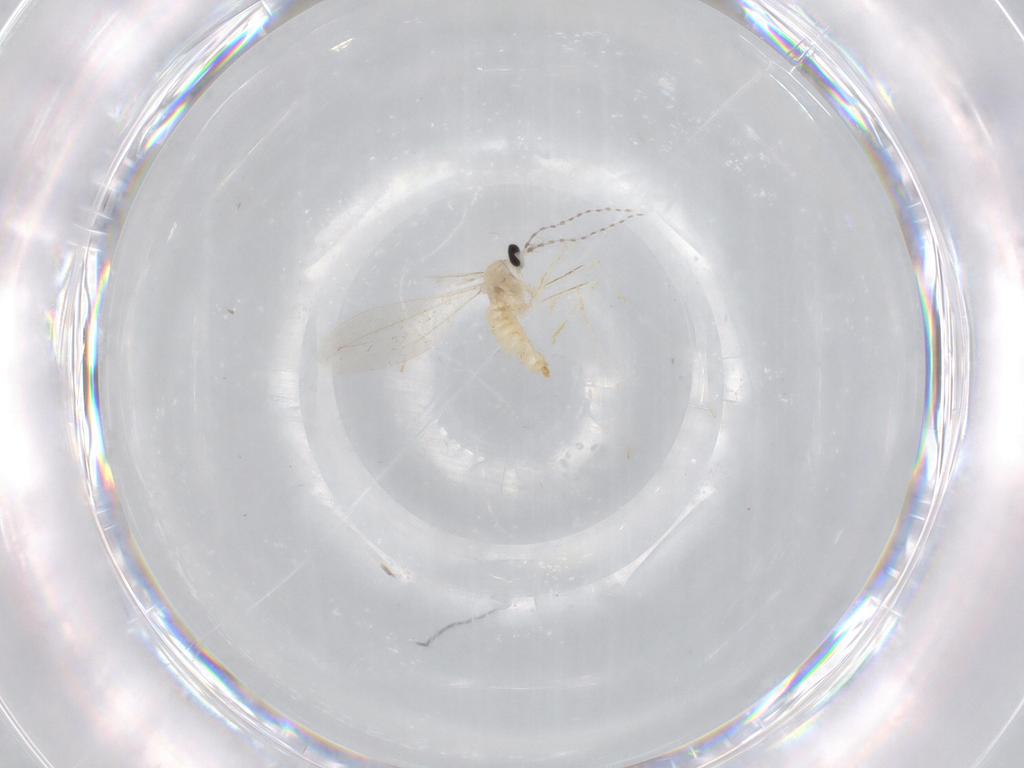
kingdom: Animalia
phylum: Arthropoda
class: Insecta
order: Diptera
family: Cecidomyiidae
